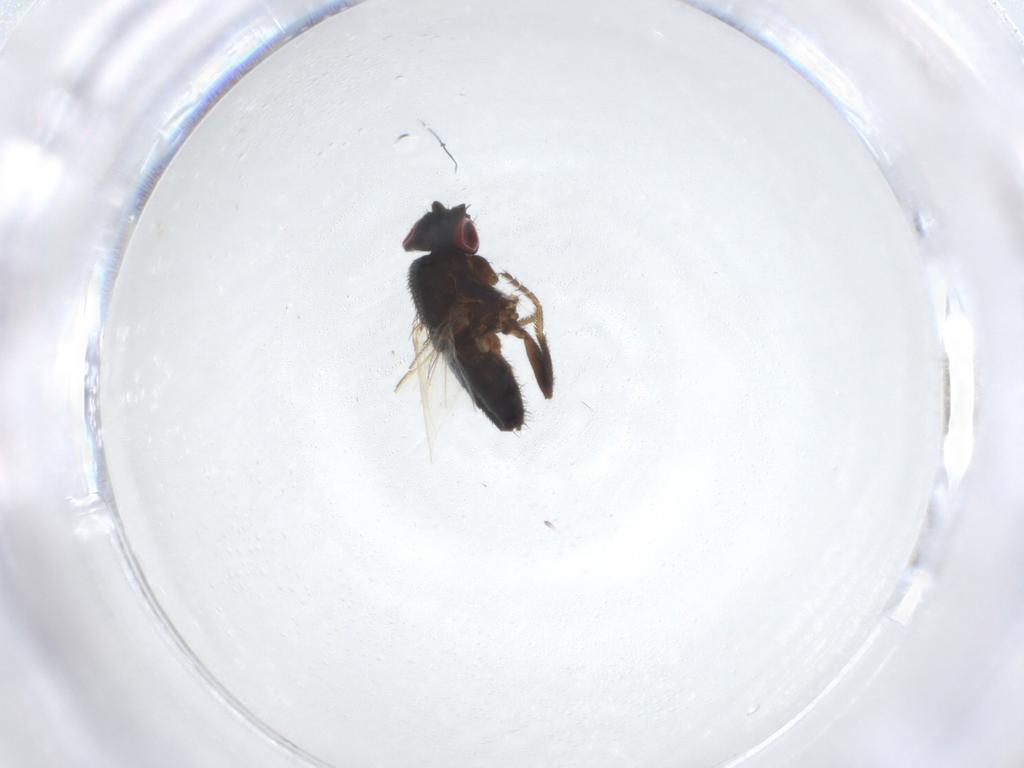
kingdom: Animalia
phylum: Arthropoda
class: Insecta
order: Diptera
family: Milichiidae
